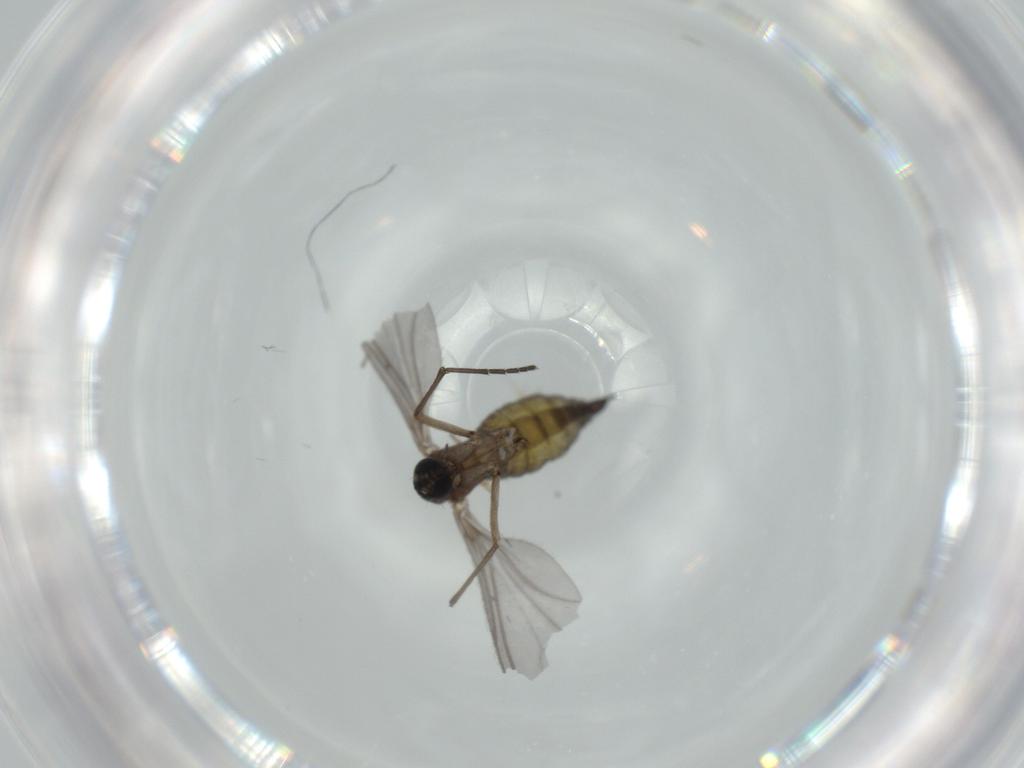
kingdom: Animalia
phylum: Arthropoda
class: Insecta
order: Diptera
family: Sciaridae
